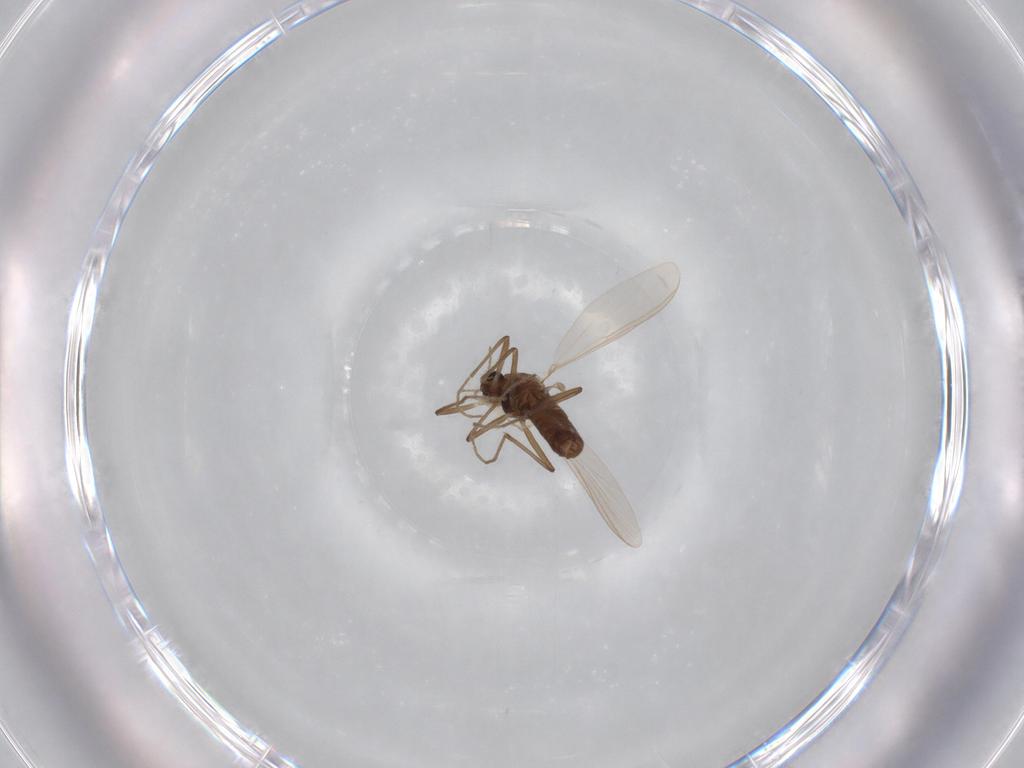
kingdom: Animalia
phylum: Arthropoda
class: Insecta
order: Diptera
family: Chironomidae
